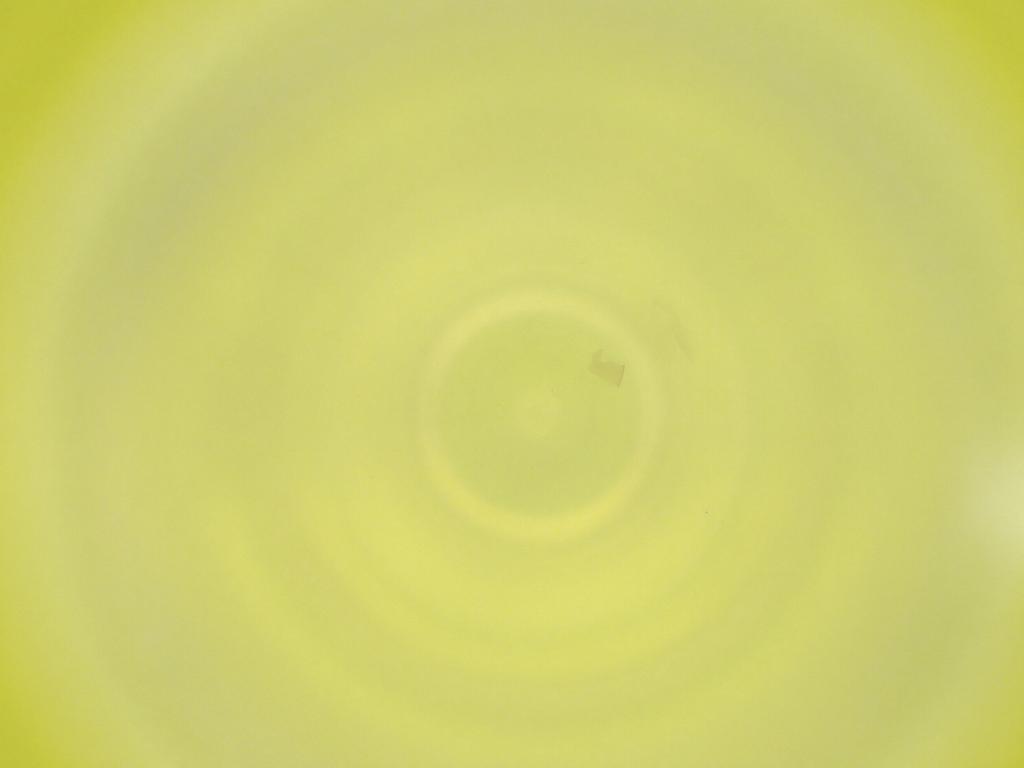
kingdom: Animalia
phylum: Arthropoda
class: Insecta
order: Diptera
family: Cecidomyiidae
